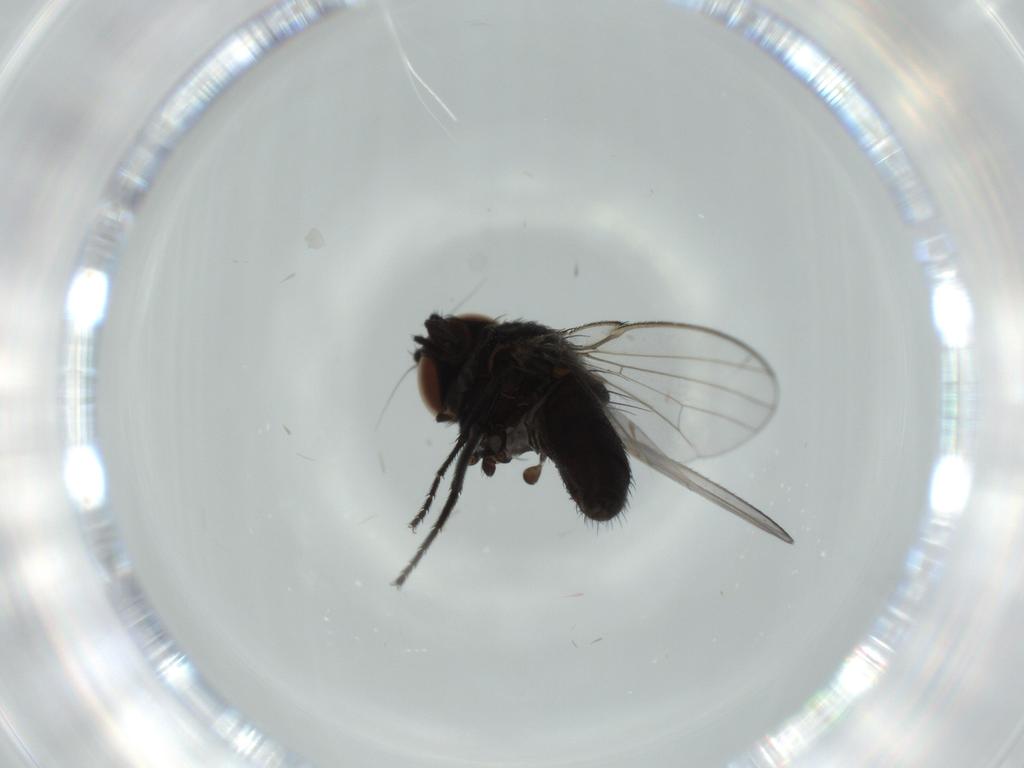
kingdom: Animalia
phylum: Arthropoda
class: Insecta
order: Diptera
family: Milichiidae
